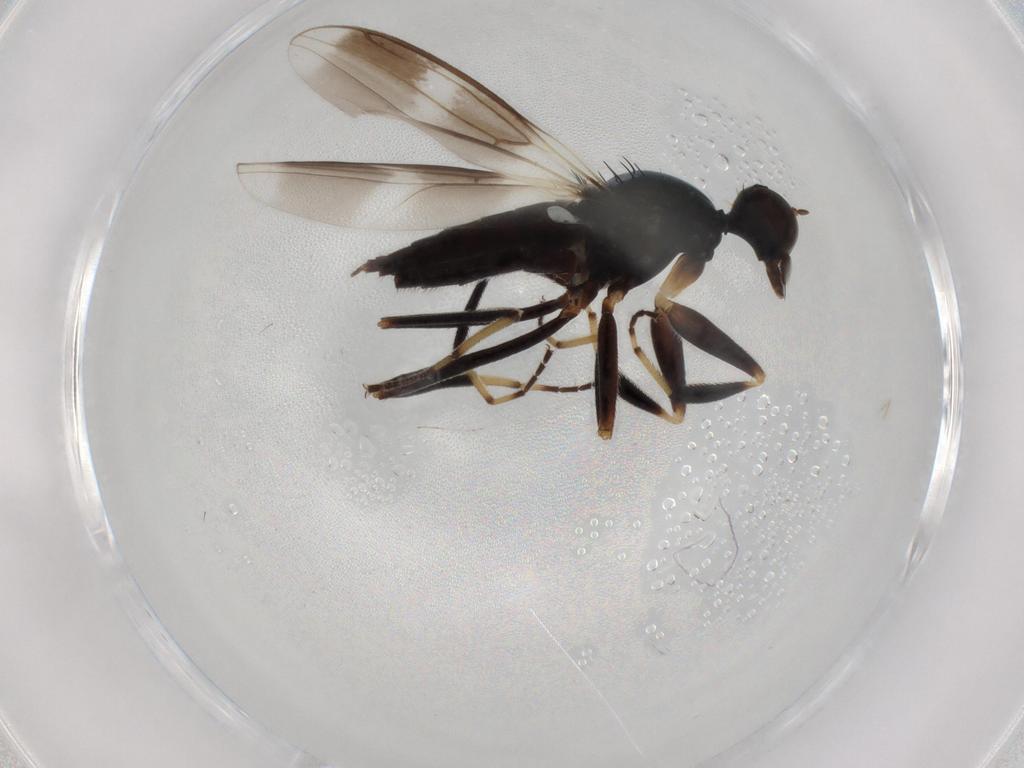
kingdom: Animalia
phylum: Arthropoda
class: Insecta
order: Diptera
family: Hybotidae
